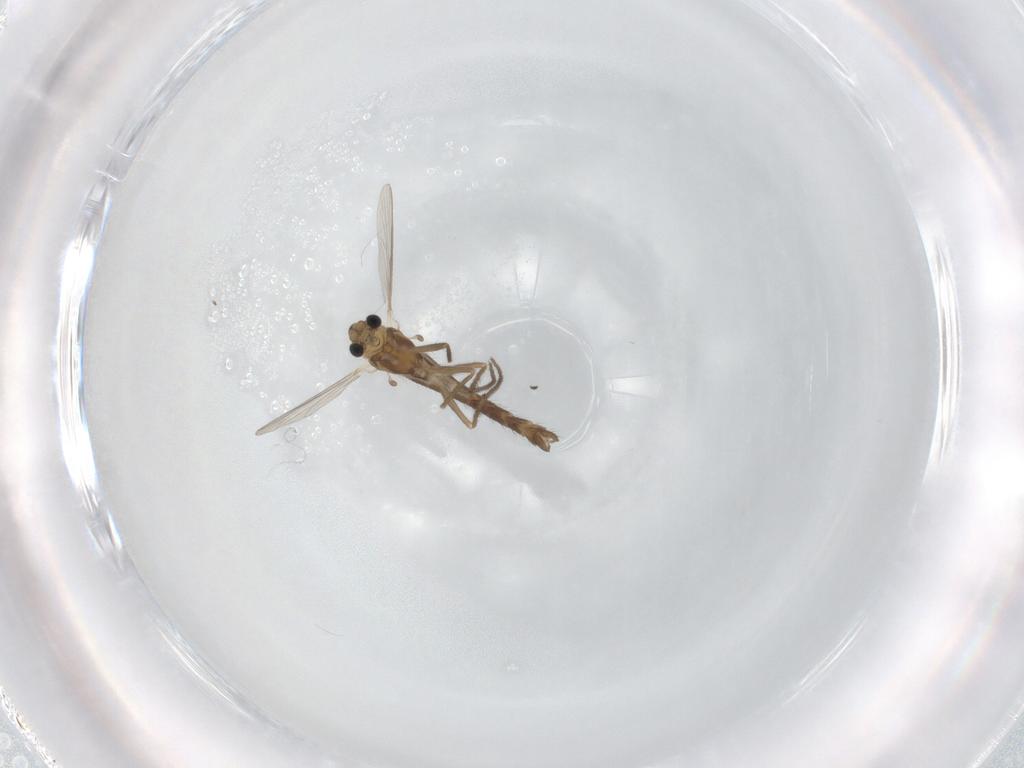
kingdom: Animalia
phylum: Arthropoda
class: Insecta
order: Diptera
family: Chironomidae
